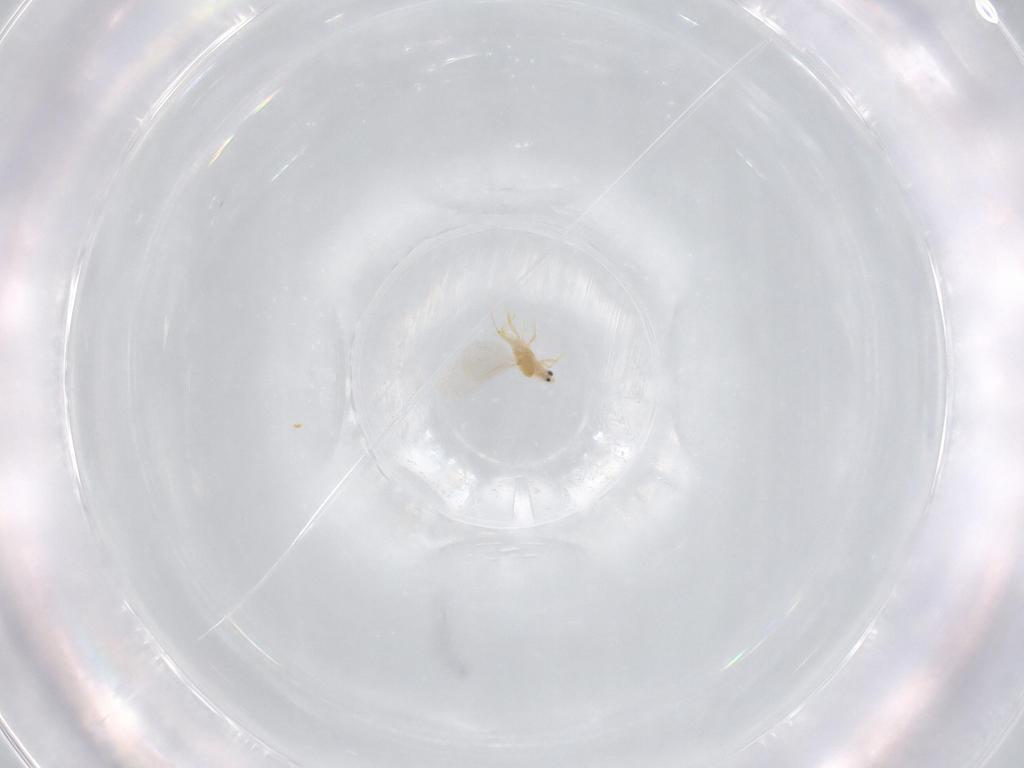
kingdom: Animalia
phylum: Arthropoda
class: Insecta
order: Hemiptera
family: Diaspididae
